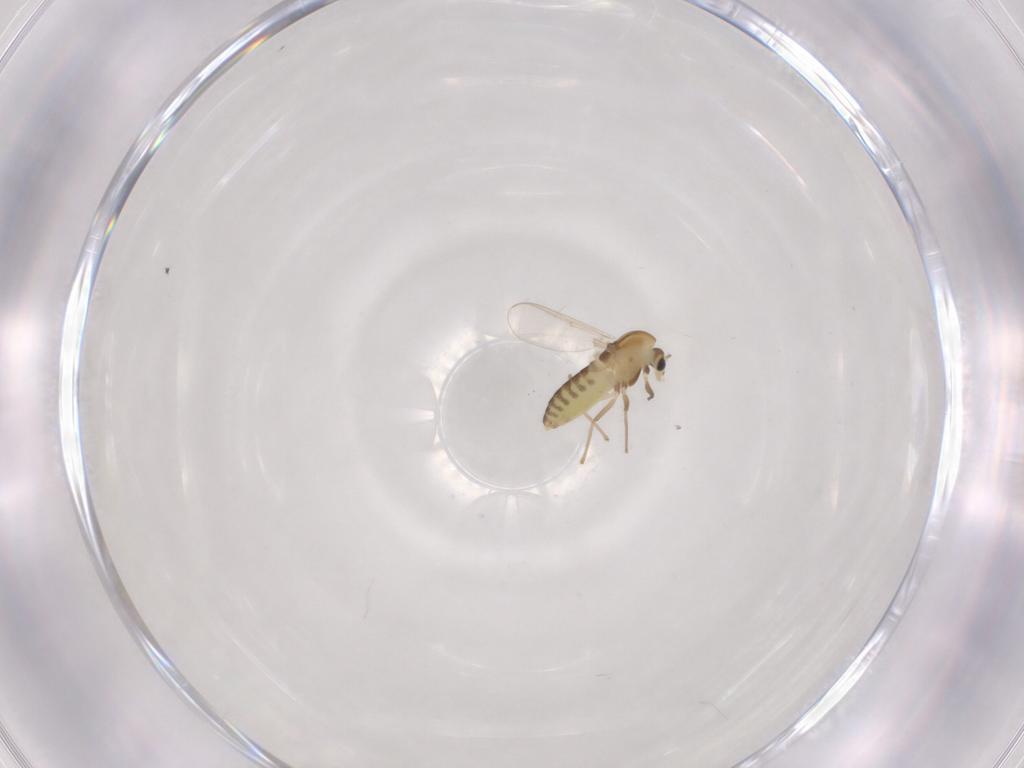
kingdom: Animalia
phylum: Arthropoda
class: Insecta
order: Diptera
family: Chironomidae
